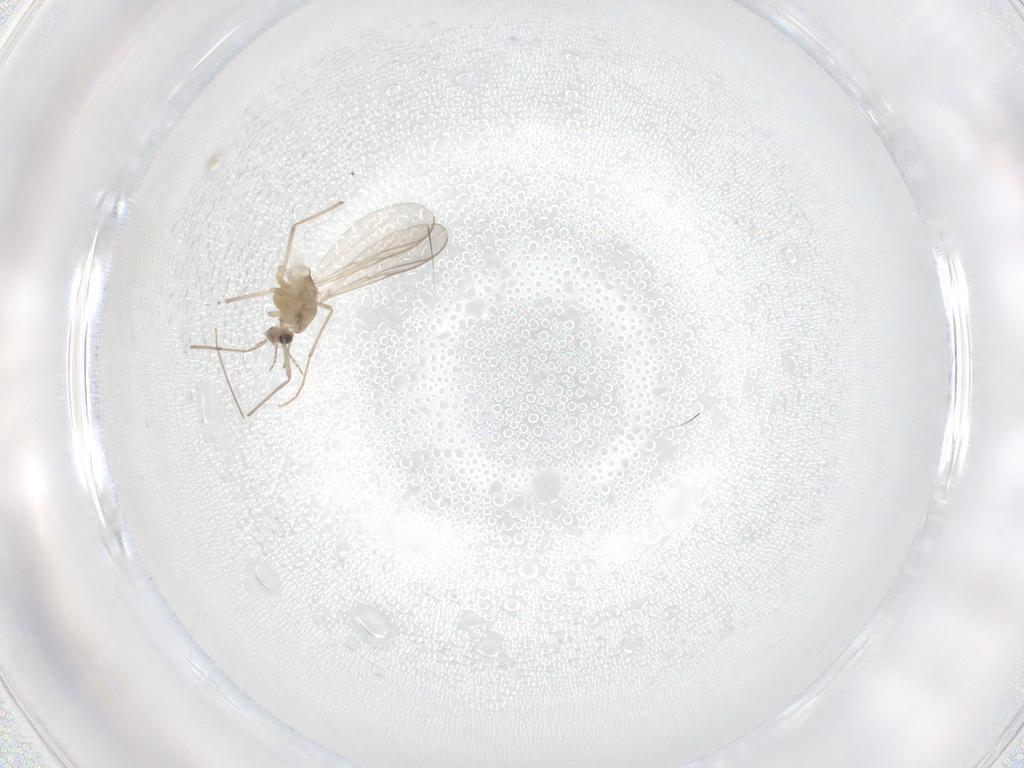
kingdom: Animalia
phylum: Arthropoda
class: Insecta
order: Diptera
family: Chironomidae
